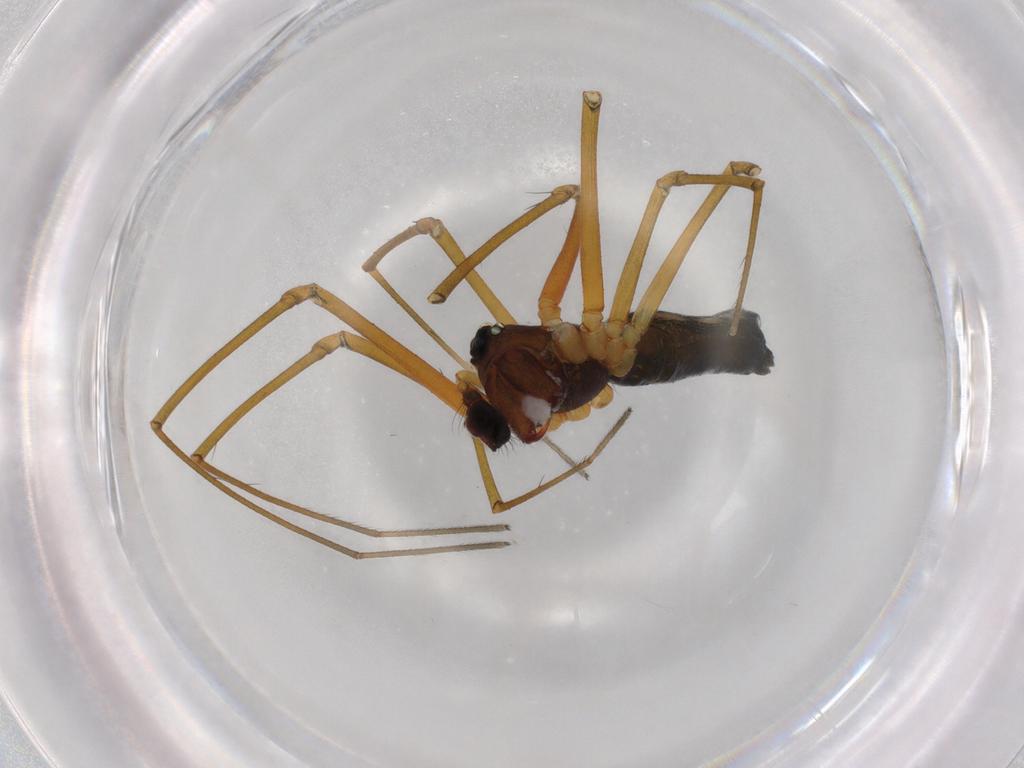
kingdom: Animalia
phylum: Arthropoda
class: Arachnida
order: Araneae
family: Theridiidae
